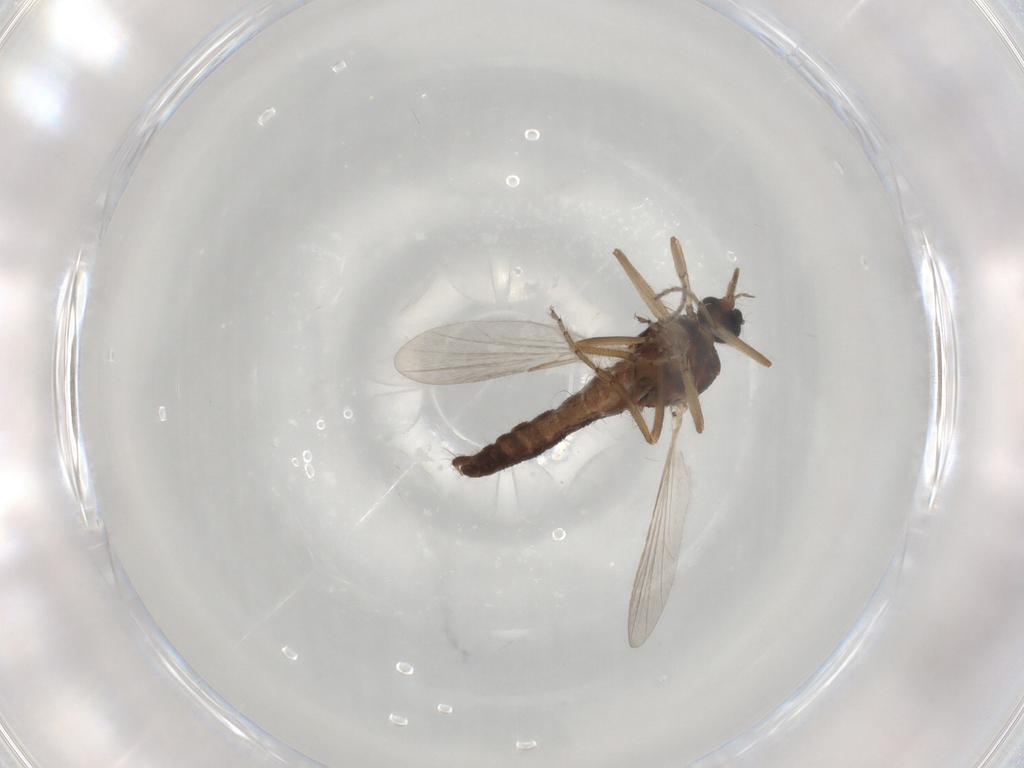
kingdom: Animalia
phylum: Arthropoda
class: Insecta
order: Diptera
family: Ceratopogonidae
